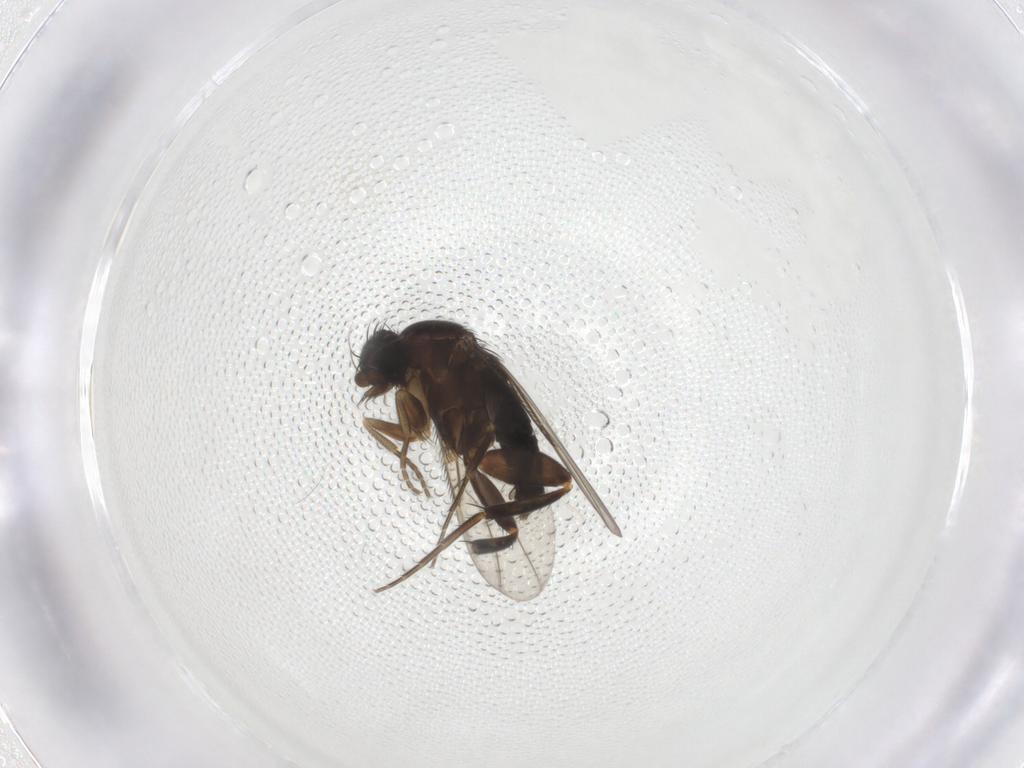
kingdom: Animalia
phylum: Arthropoda
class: Insecta
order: Diptera
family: Phoridae
